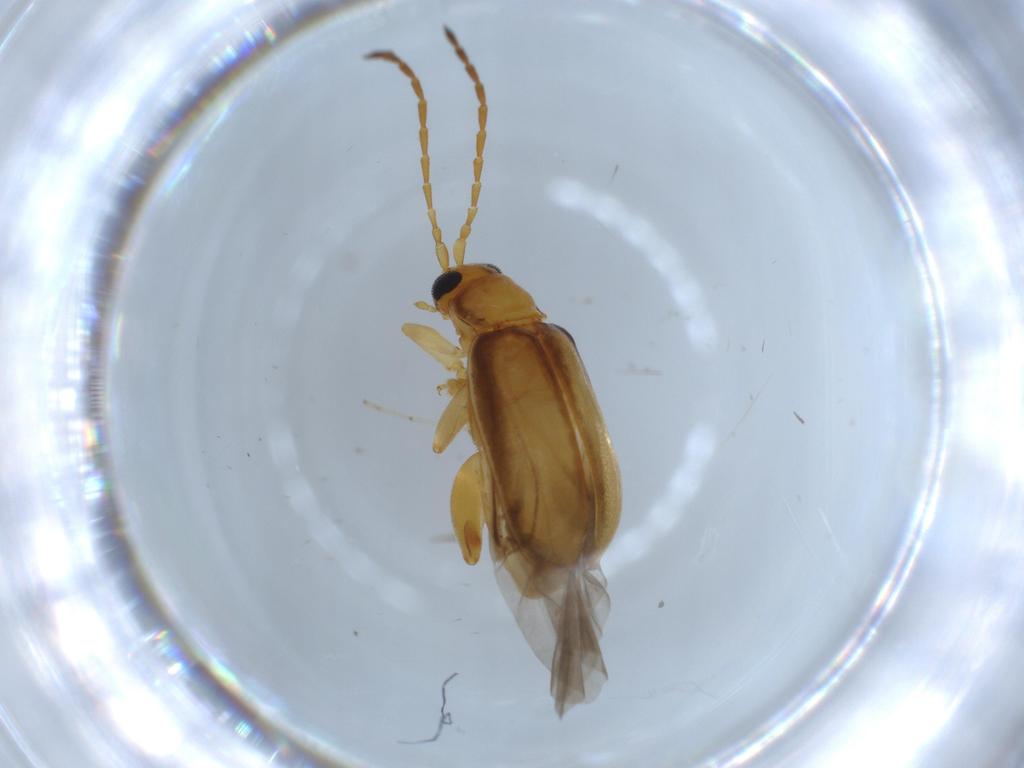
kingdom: Animalia
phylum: Arthropoda
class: Insecta
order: Coleoptera
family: Chrysomelidae
